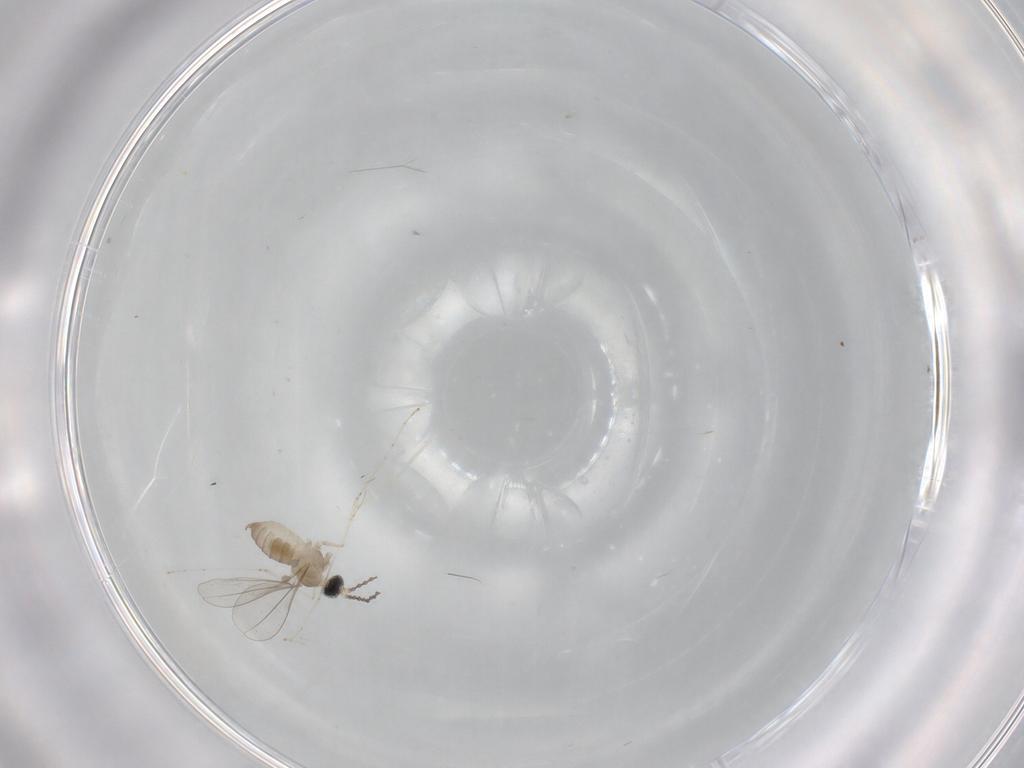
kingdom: Animalia
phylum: Arthropoda
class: Insecta
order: Diptera
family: Cecidomyiidae
